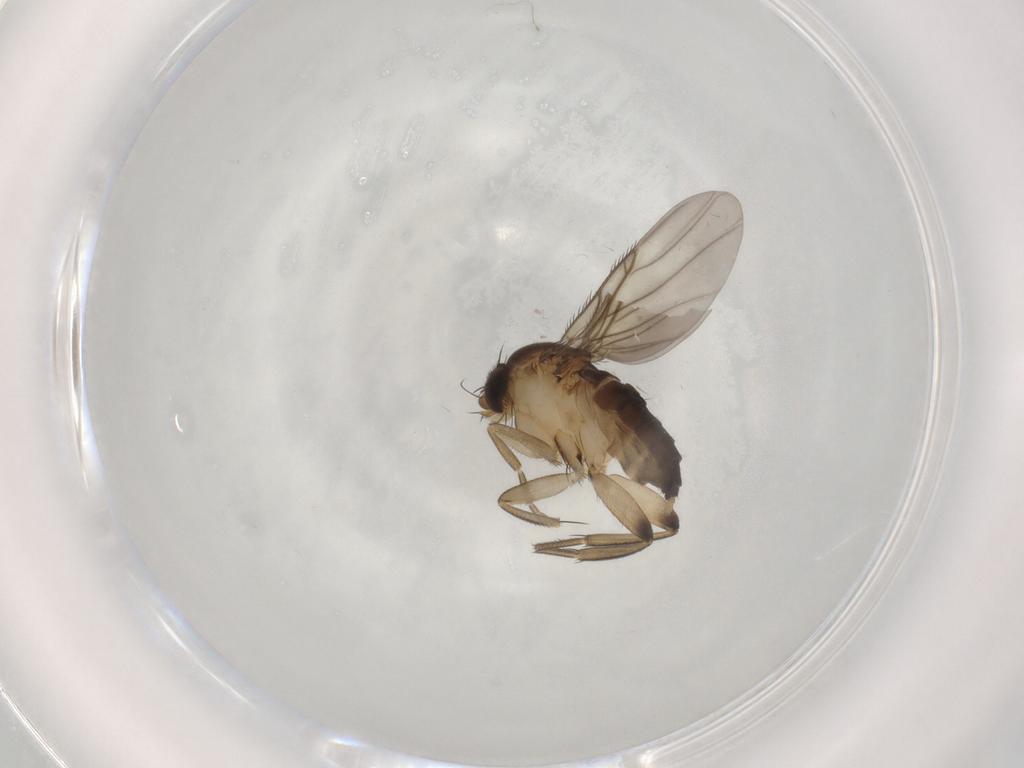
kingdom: Animalia
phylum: Arthropoda
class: Insecta
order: Diptera
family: Phoridae
